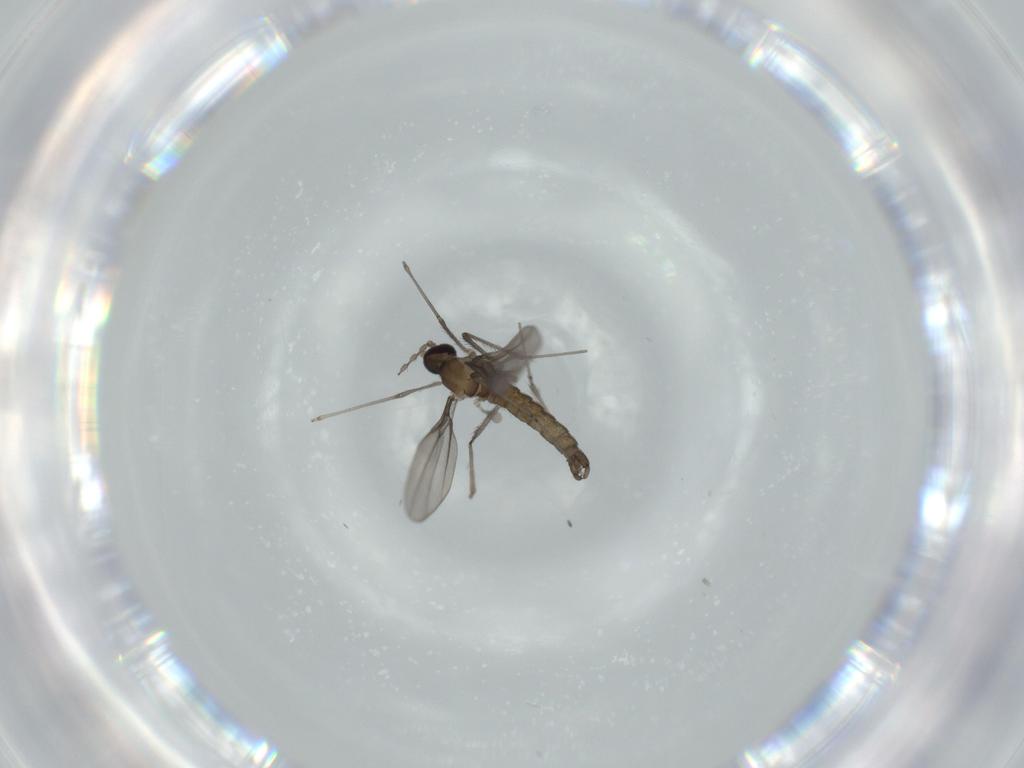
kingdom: Animalia
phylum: Arthropoda
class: Insecta
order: Diptera
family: Cecidomyiidae
